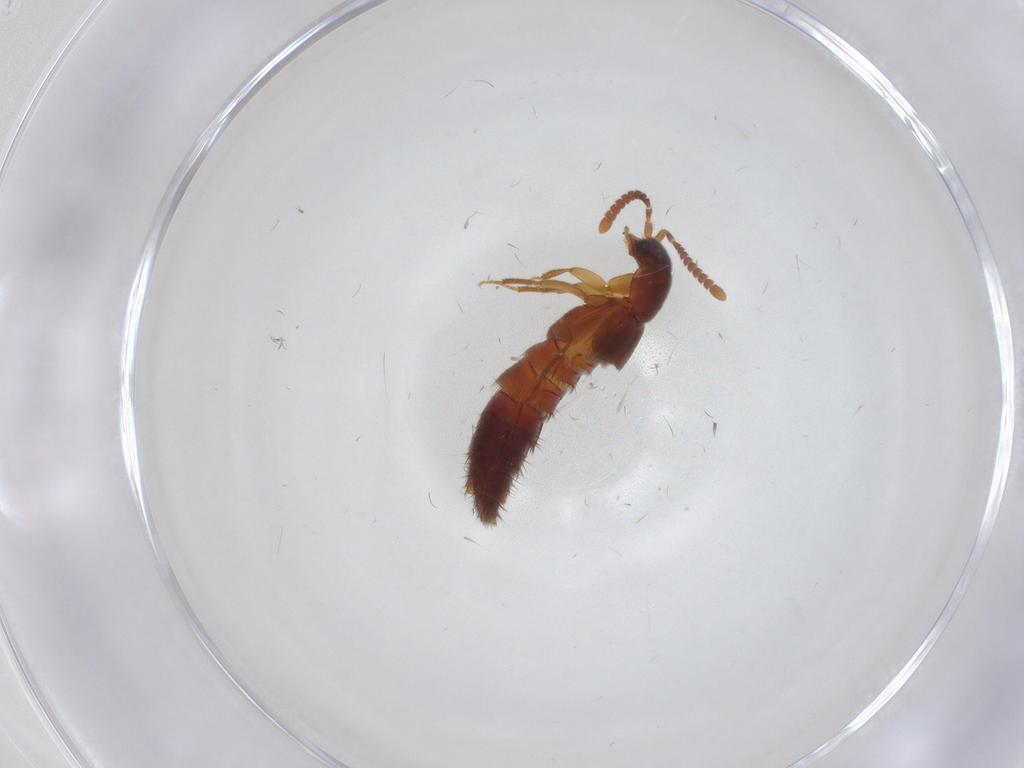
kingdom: Animalia
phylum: Arthropoda
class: Insecta
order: Coleoptera
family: Staphylinidae
